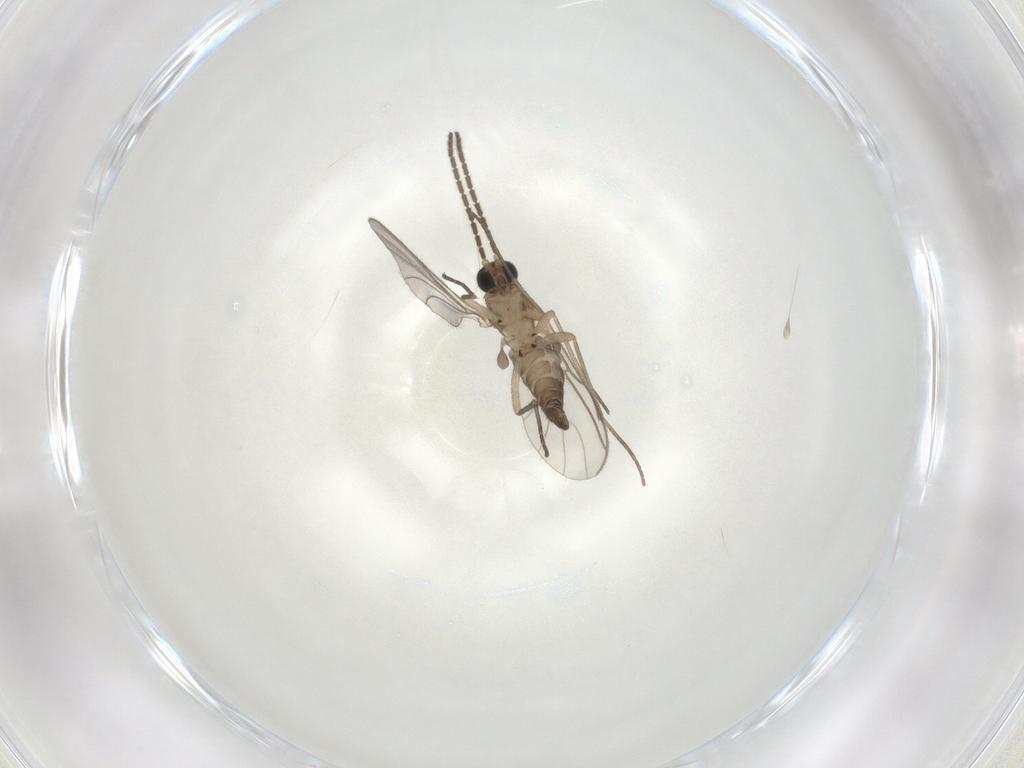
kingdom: Animalia
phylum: Arthropoda
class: Insecta
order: Diptera
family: Sciaridae
